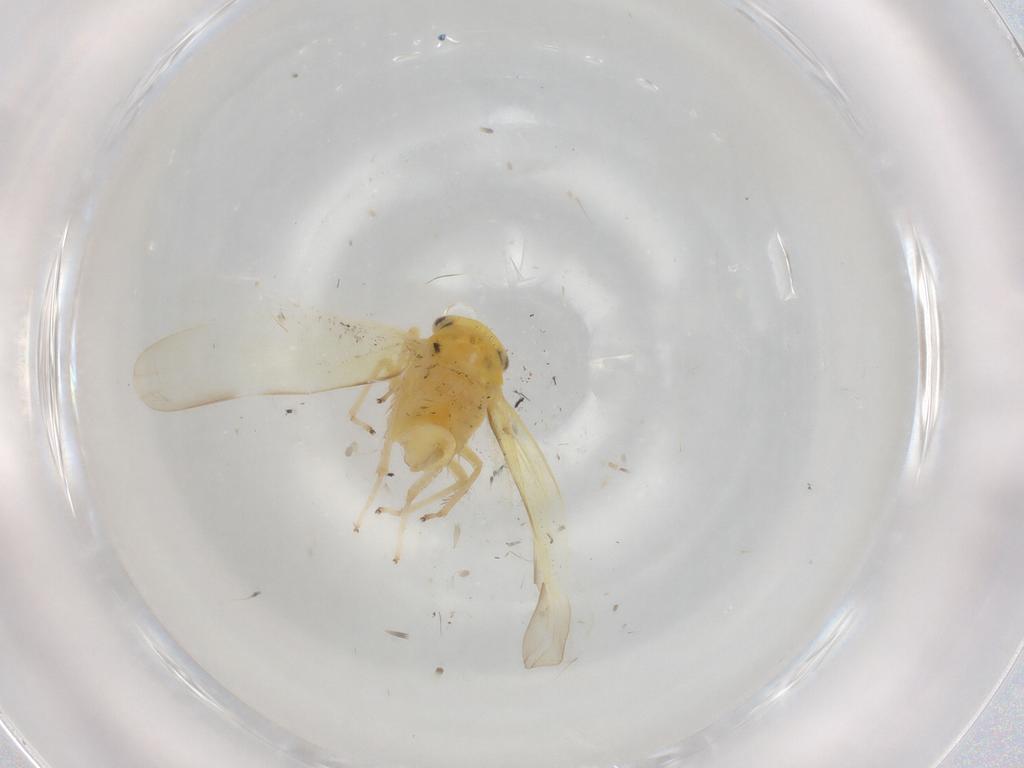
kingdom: Animalia
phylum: Arthropoda
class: Insecta
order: Hemiptera
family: Cicadellidae
